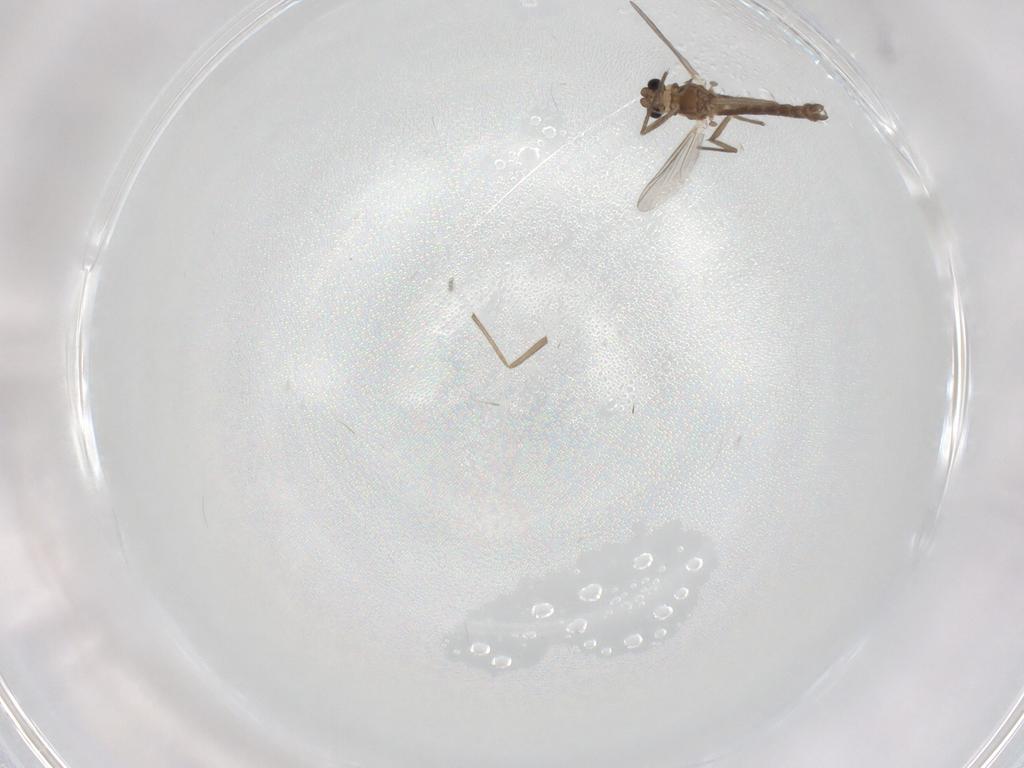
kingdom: Animalia
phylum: Arthropoda
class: Insecta
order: Diptera
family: Chironomidae
